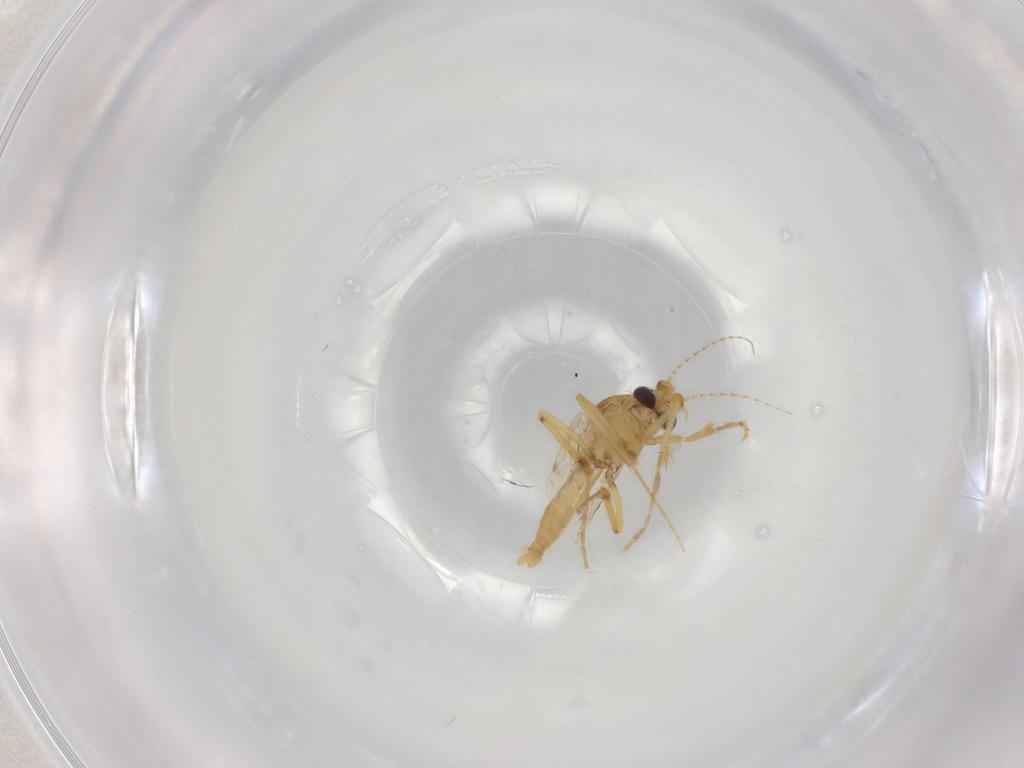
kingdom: Animalia
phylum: Arthropoda
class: Insecta
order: Diptera
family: Corethrellidae
